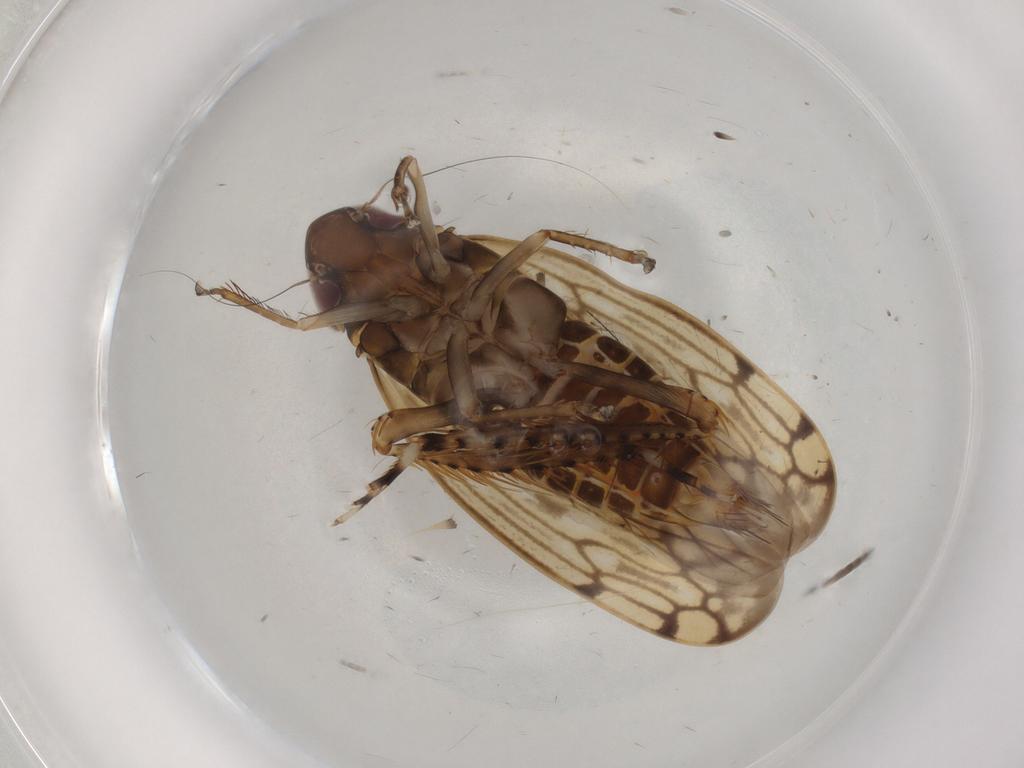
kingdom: Animalia
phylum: Arthropoda
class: Insecta
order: Hemiptera
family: Cicadellidae
